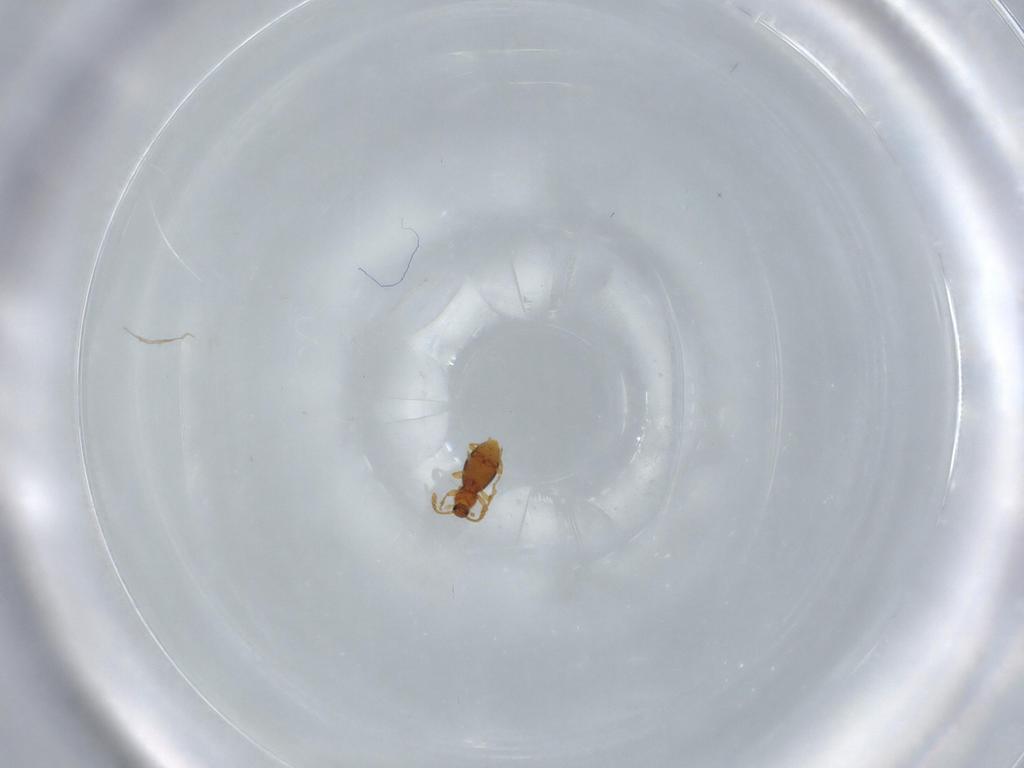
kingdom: Animalia
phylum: Arthropoda
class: Insecta
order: Coleoptera
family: Staphylinidae
